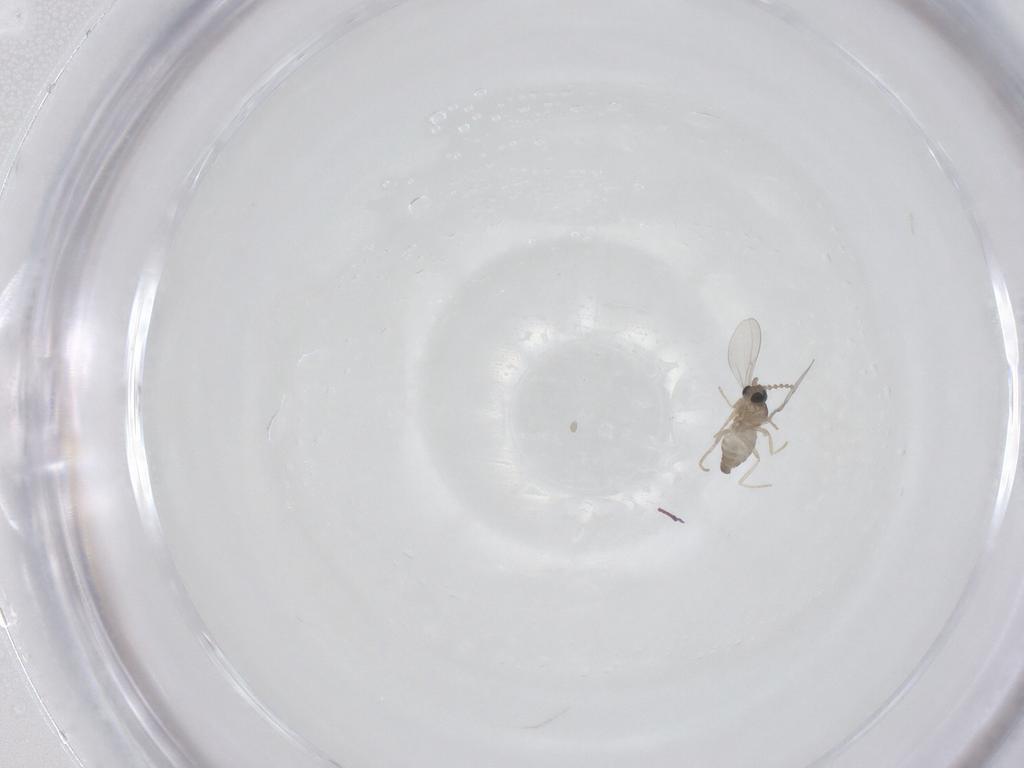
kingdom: Animalia
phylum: Arthropoda
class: Insecta
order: Diptera
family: Cecidomyiidae
